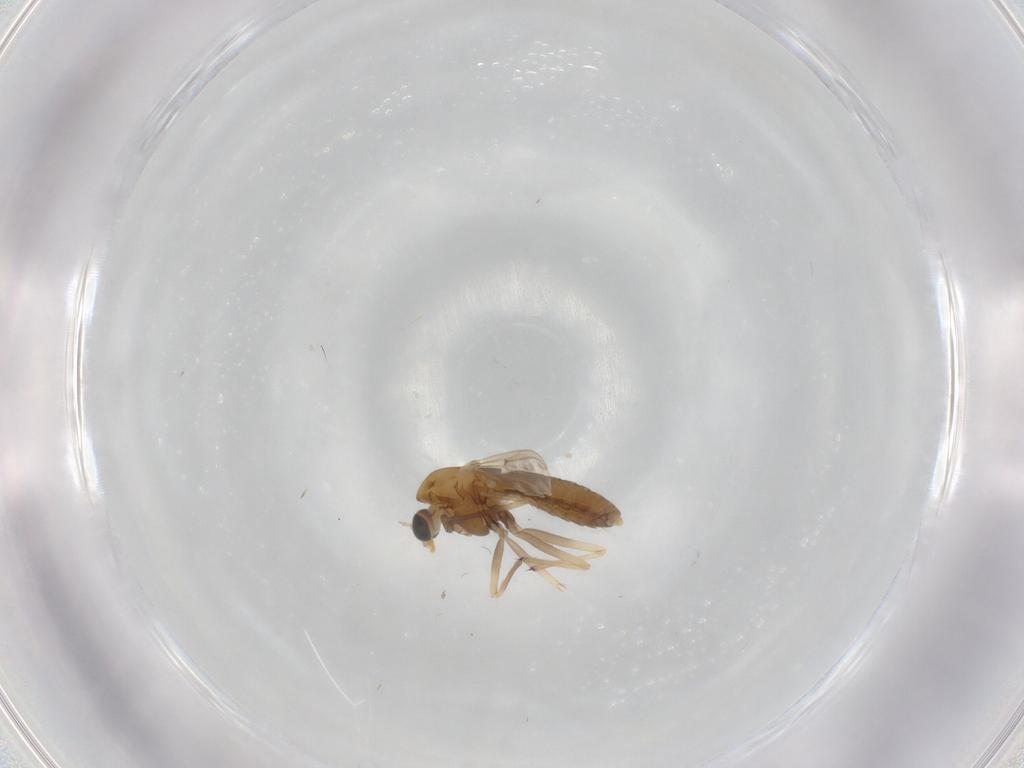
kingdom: Animalia
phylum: Arthropoda
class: Insecta
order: Diptera
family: Chironomidae
